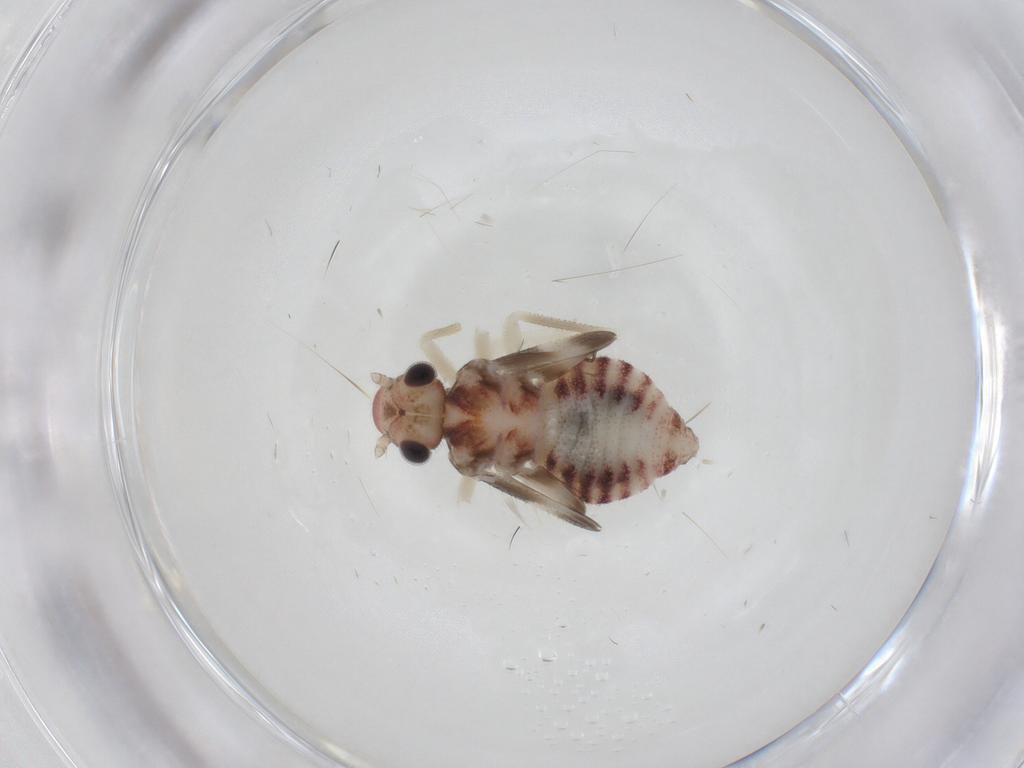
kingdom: Animalia
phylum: Arthropoda
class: Insecta
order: Psocodea
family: Amphipsocidae
